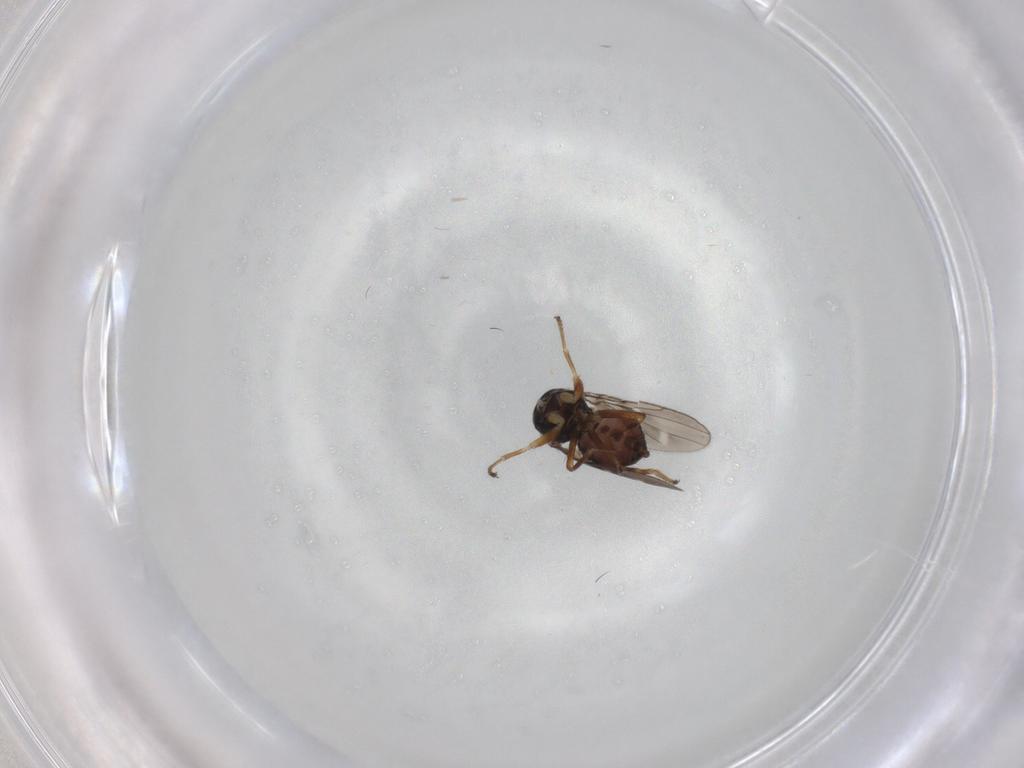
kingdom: Animalia
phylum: Arthropoda
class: Insecta
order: Diptera
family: Ephydridae
